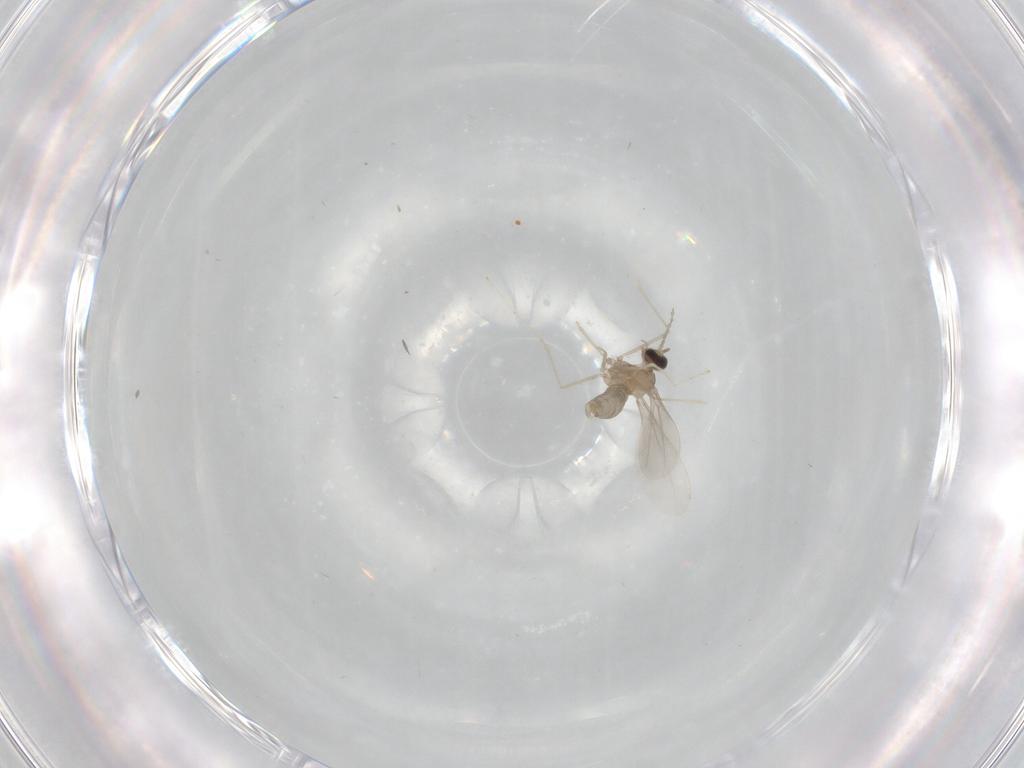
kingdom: Animalia
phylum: Arthropoda
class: Insecta
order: Diptera
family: Cecidomyiidae
